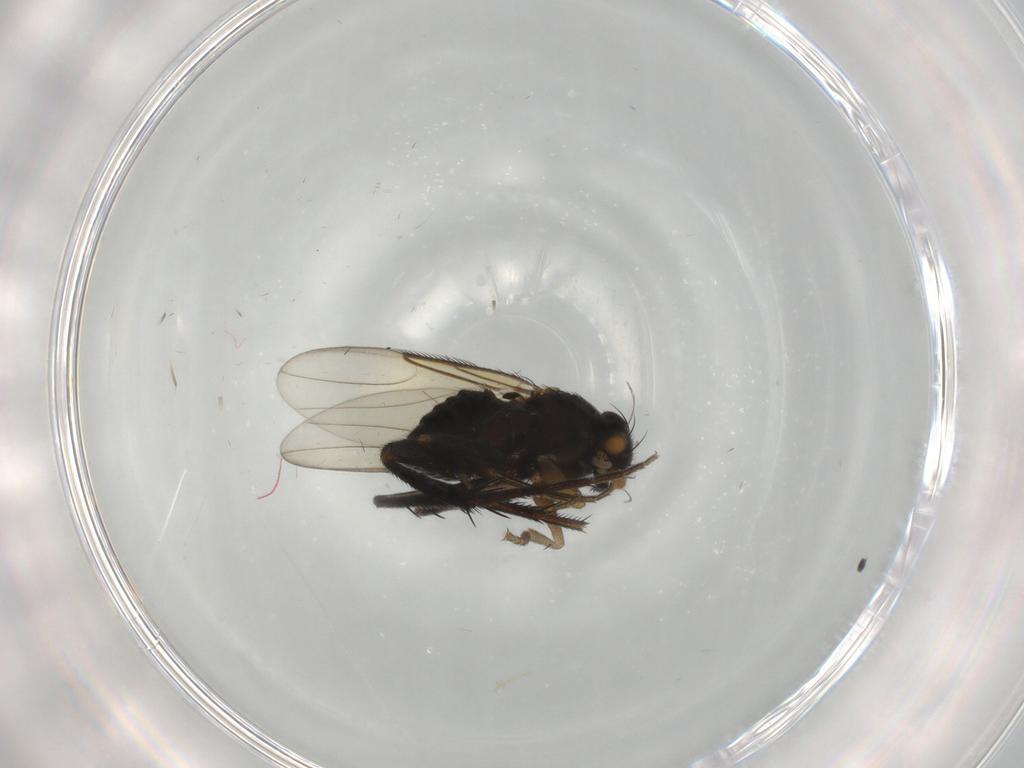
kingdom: Animalia
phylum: Arthropoda
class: Insecta
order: Diptera
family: Phoridae
